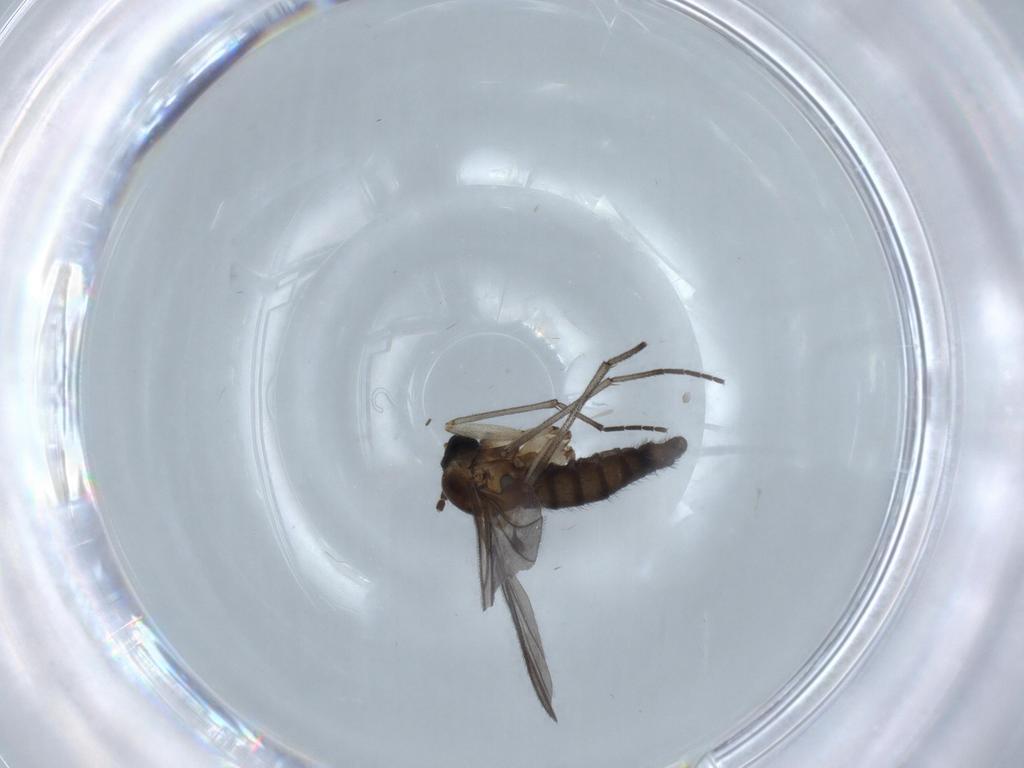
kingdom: Animalia
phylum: Arthropoda
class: Insecta
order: Diptera
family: Sciaridae
